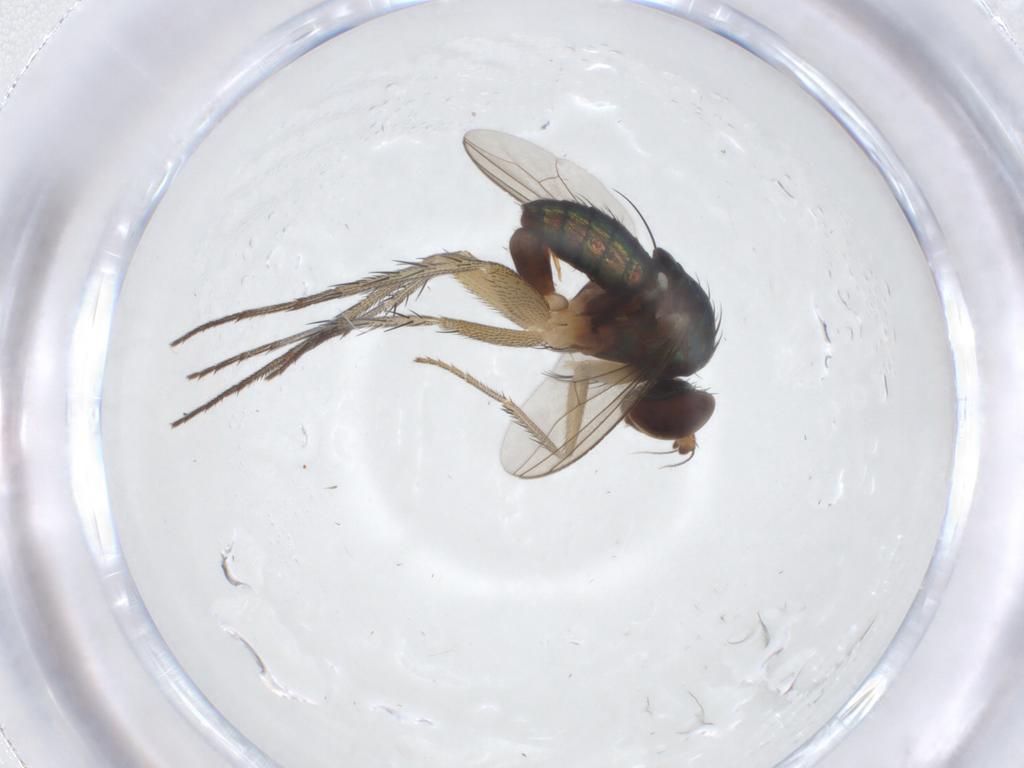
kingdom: Animalia
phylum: Arthropoda
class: Insecta
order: Diptera
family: Dolichopodidae
